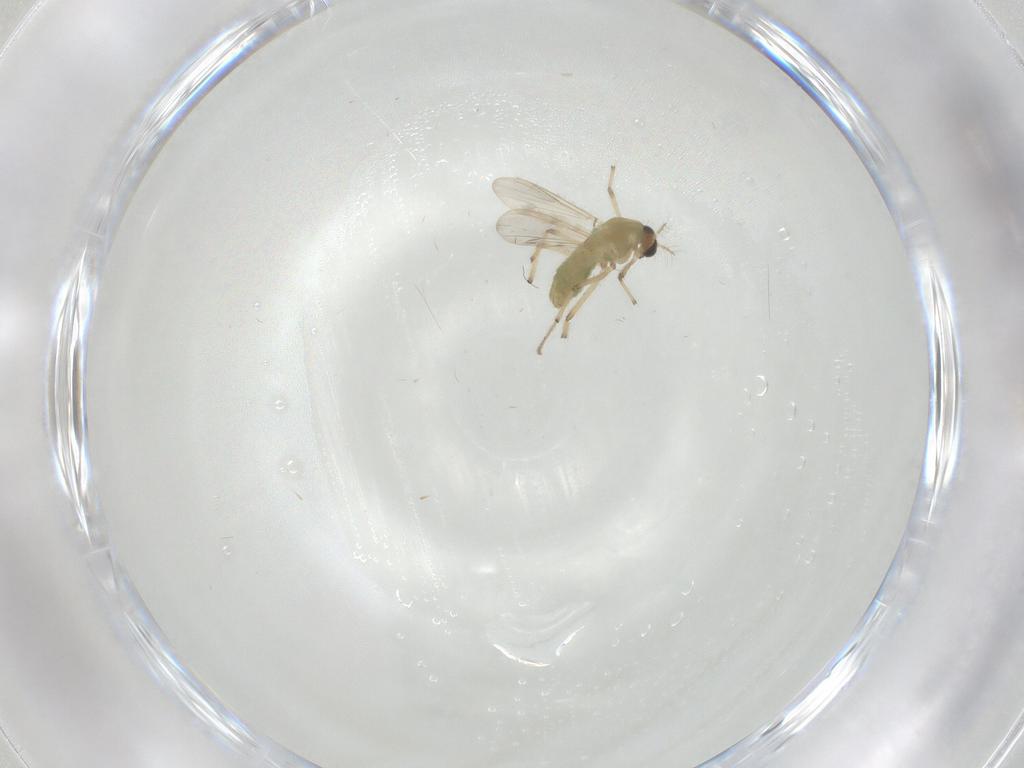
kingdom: Animalia
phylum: Arthropoda
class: Insecta
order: Diptera
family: Chironomidae
